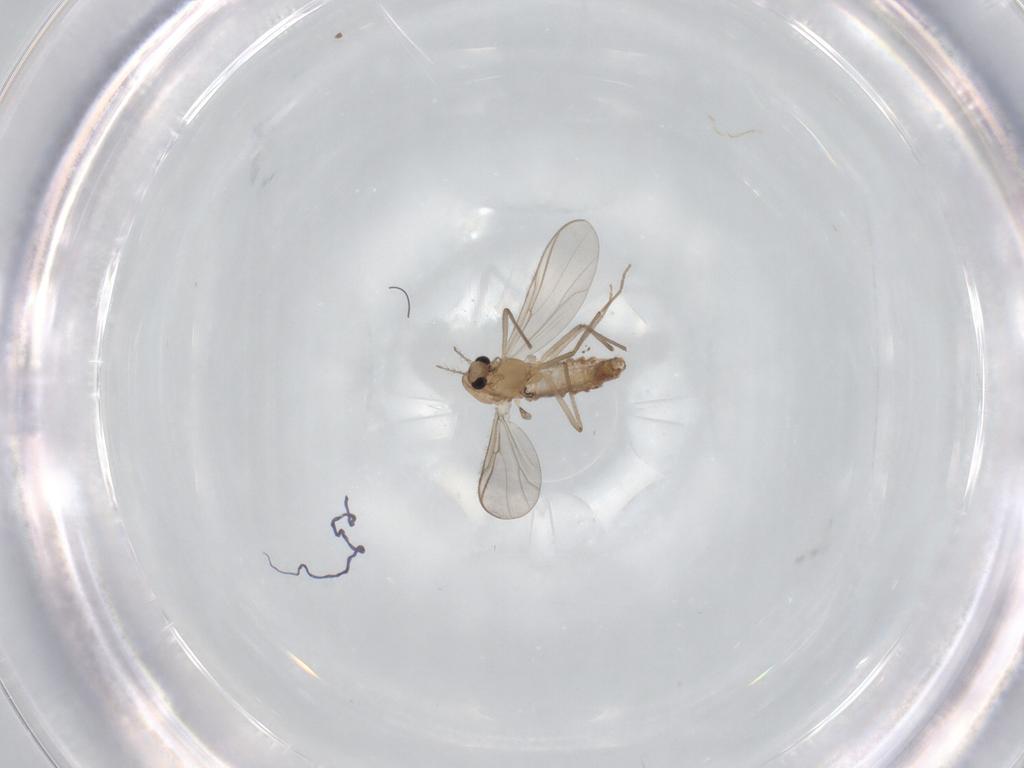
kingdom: Animalia
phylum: Arthropoda
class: Insecta
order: Diptera
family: Chironomidae
